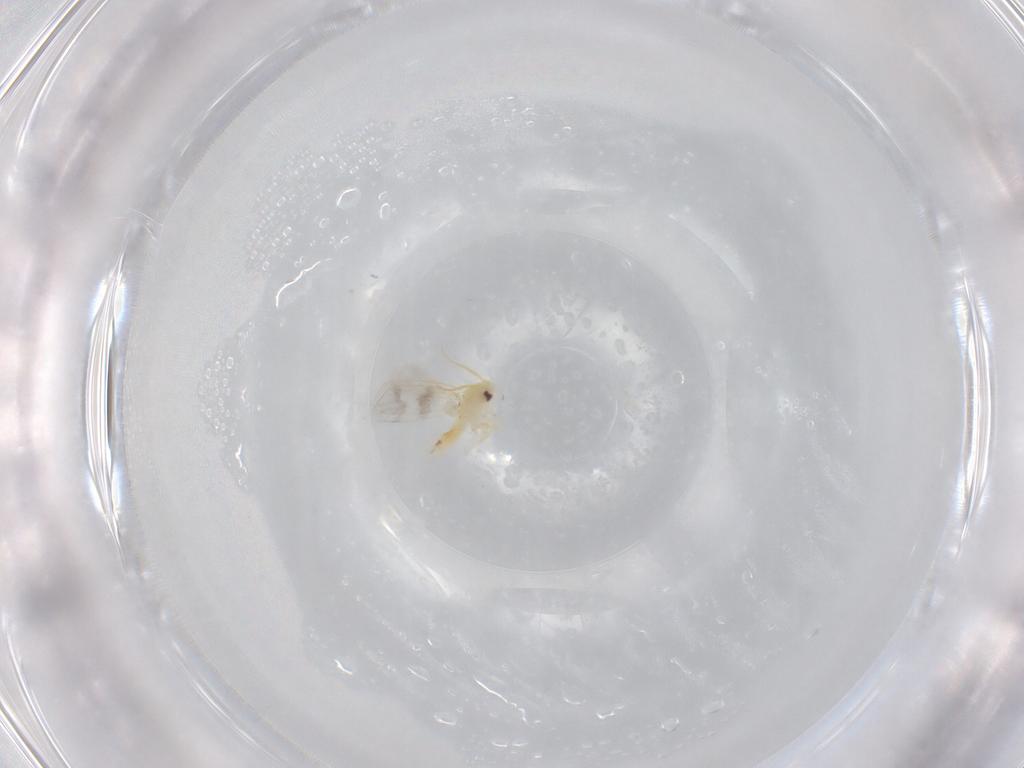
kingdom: Animalia
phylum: Arthropoda
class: Insecta
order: Hemiptera
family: Aleyrodidae
